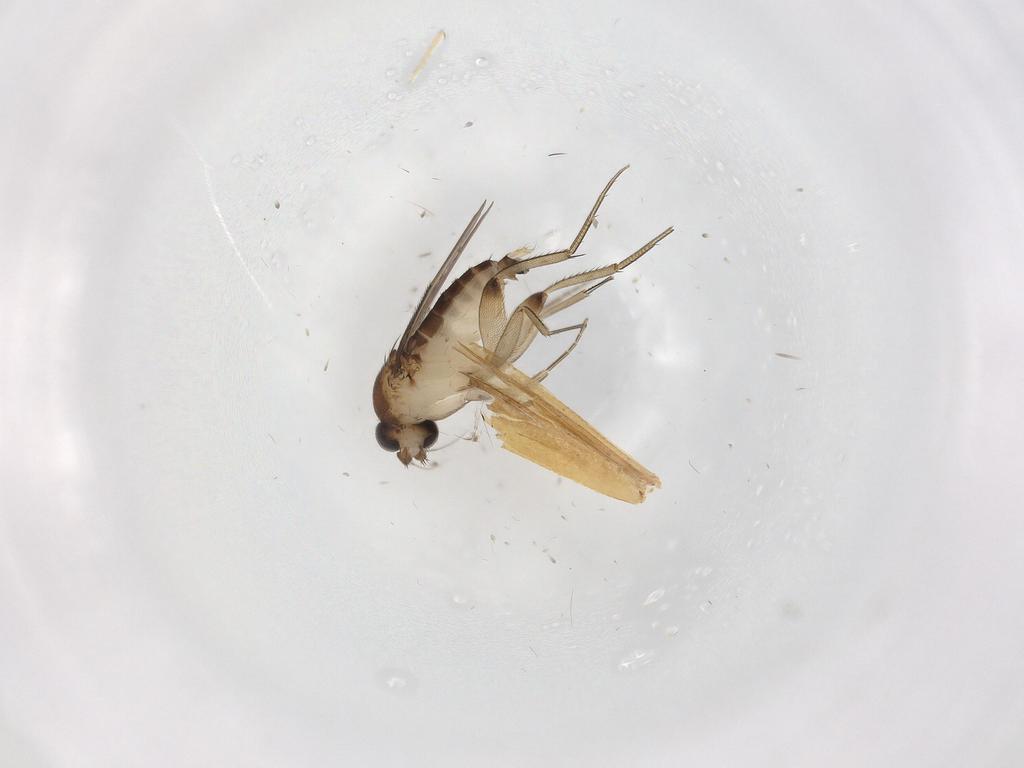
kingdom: Animalia
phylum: Arthropoda
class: Insecta
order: Diptera
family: Phoridae
